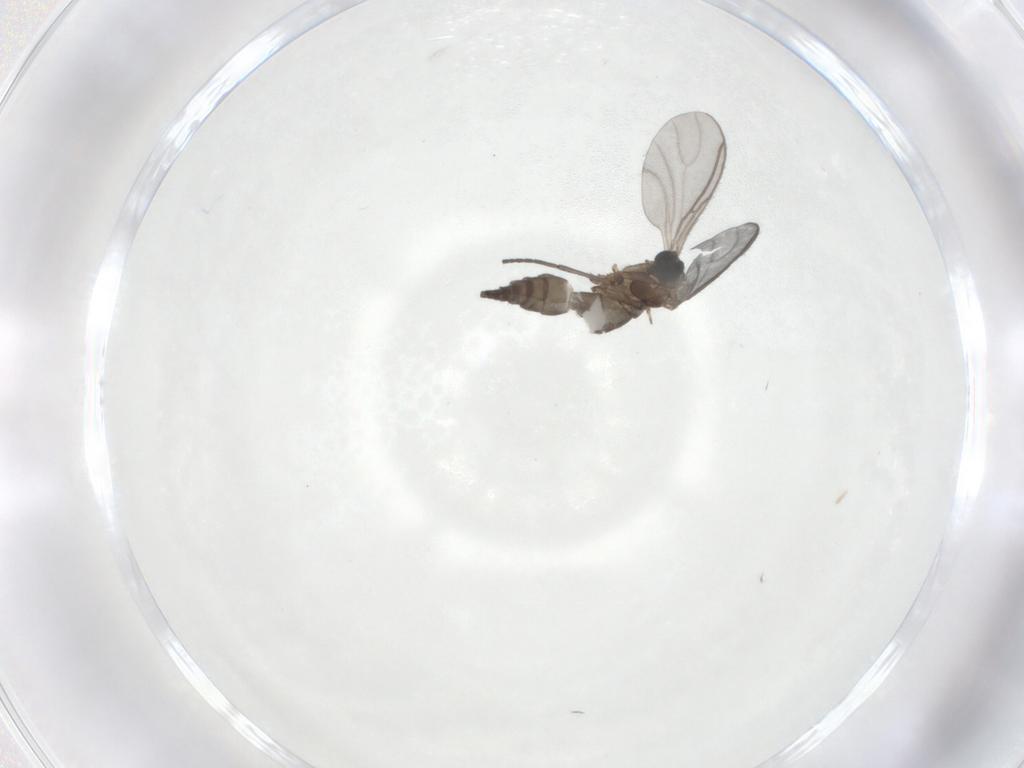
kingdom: Animalia
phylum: Arthropoda
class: Insecta
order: Diptera
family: Sciaridae
